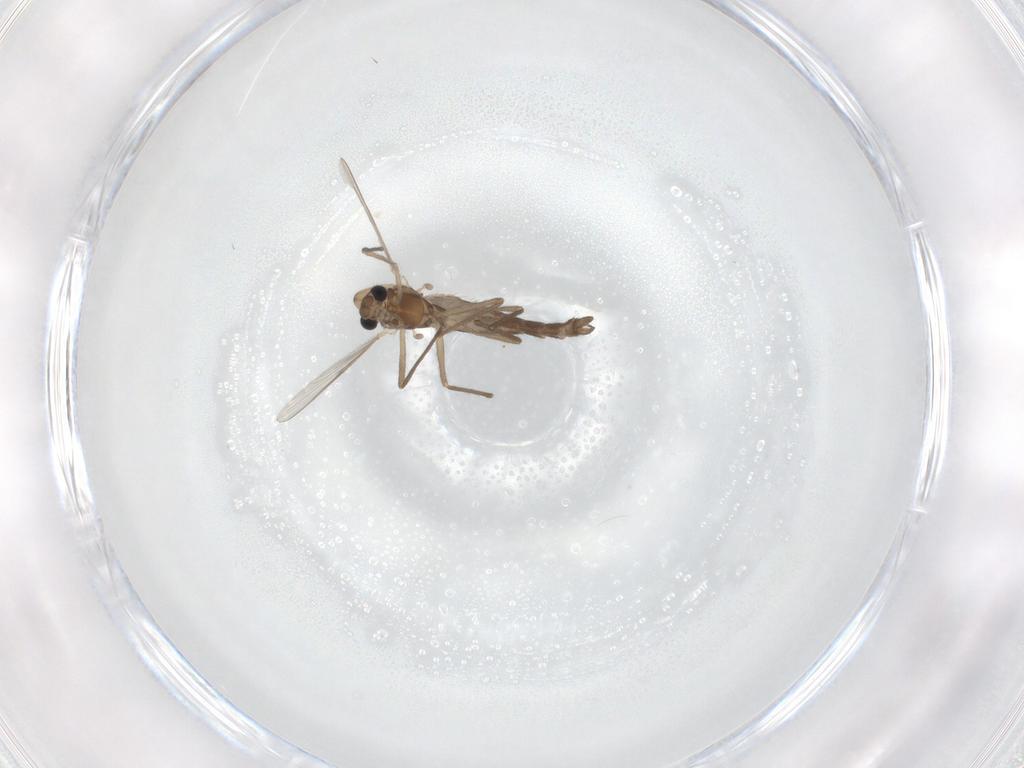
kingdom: Animalia
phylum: Arthropoda
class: Insecta
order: Diptera
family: Chironomidae
